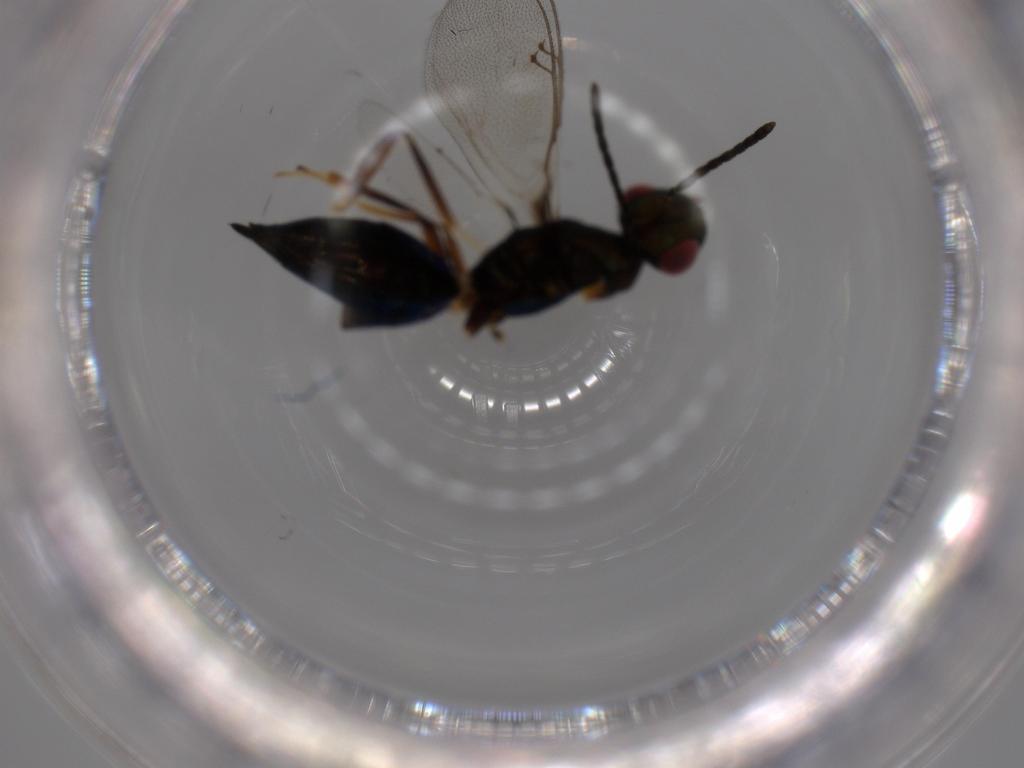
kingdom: Animalia
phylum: Arthropoda
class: Insecta
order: Hymenoptera
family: Pteromalidae
